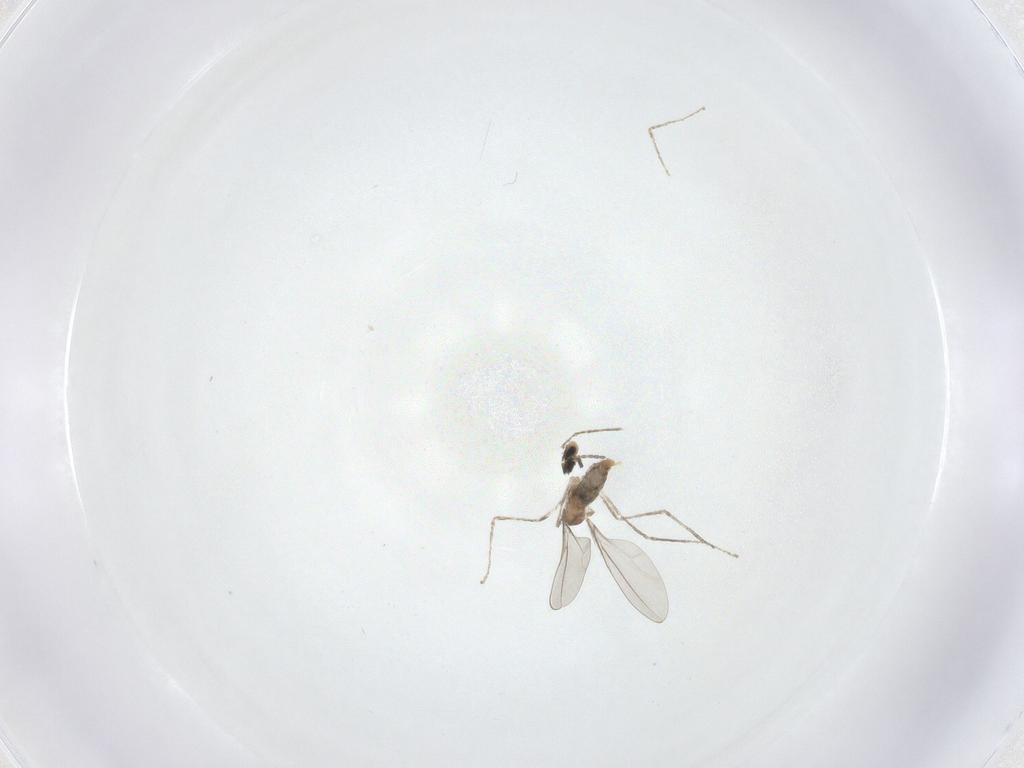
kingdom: Animalia
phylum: Arthropoda
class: Insecta
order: Diptera
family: Cecidomyiidae
